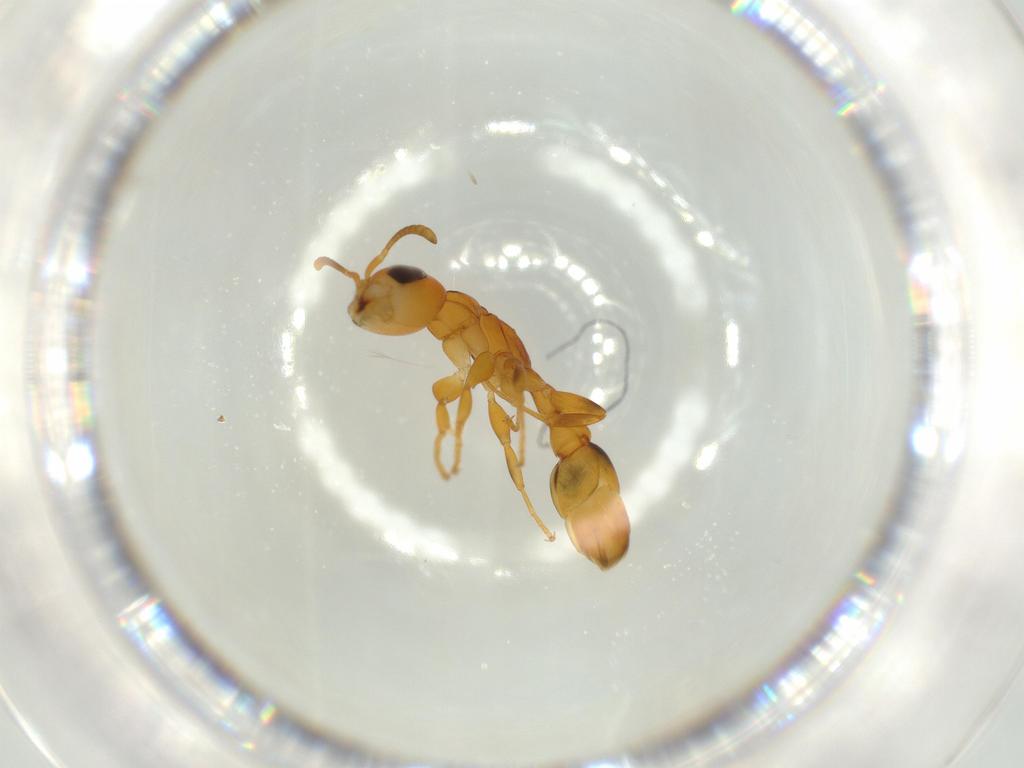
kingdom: Animalia
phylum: Arthropoda
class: Insecta
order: Hymenoptera
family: Formicidae
